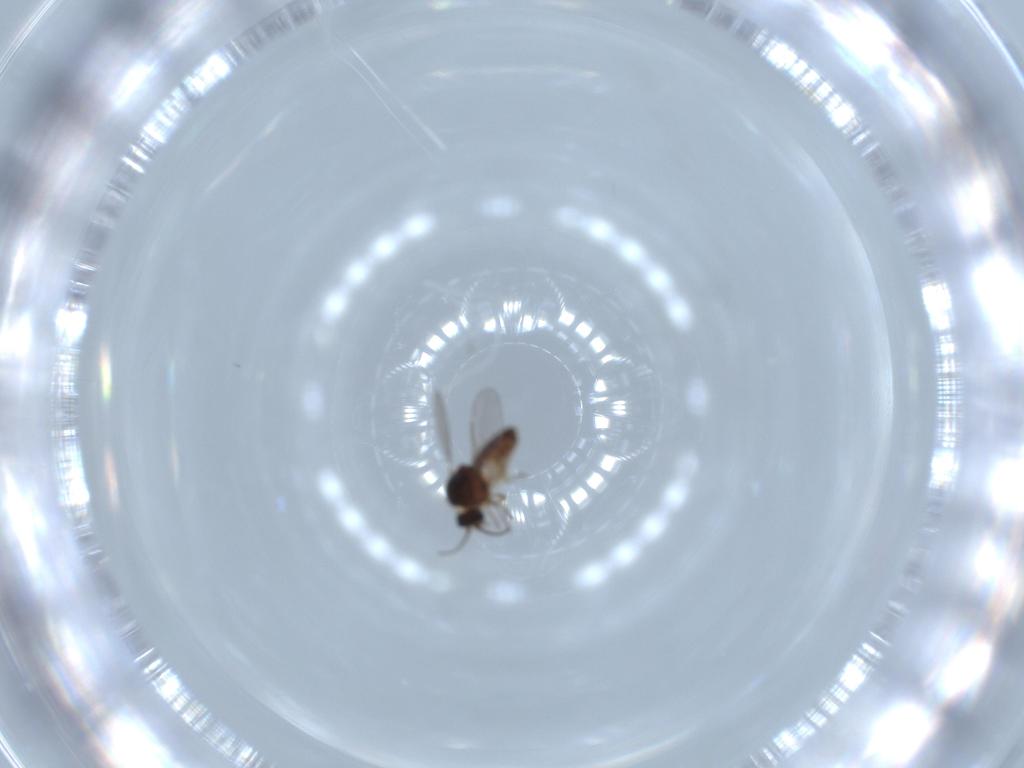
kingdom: Animalia
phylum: Arthropoda
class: Insecta
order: Diptera
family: Ceratopogonidae
